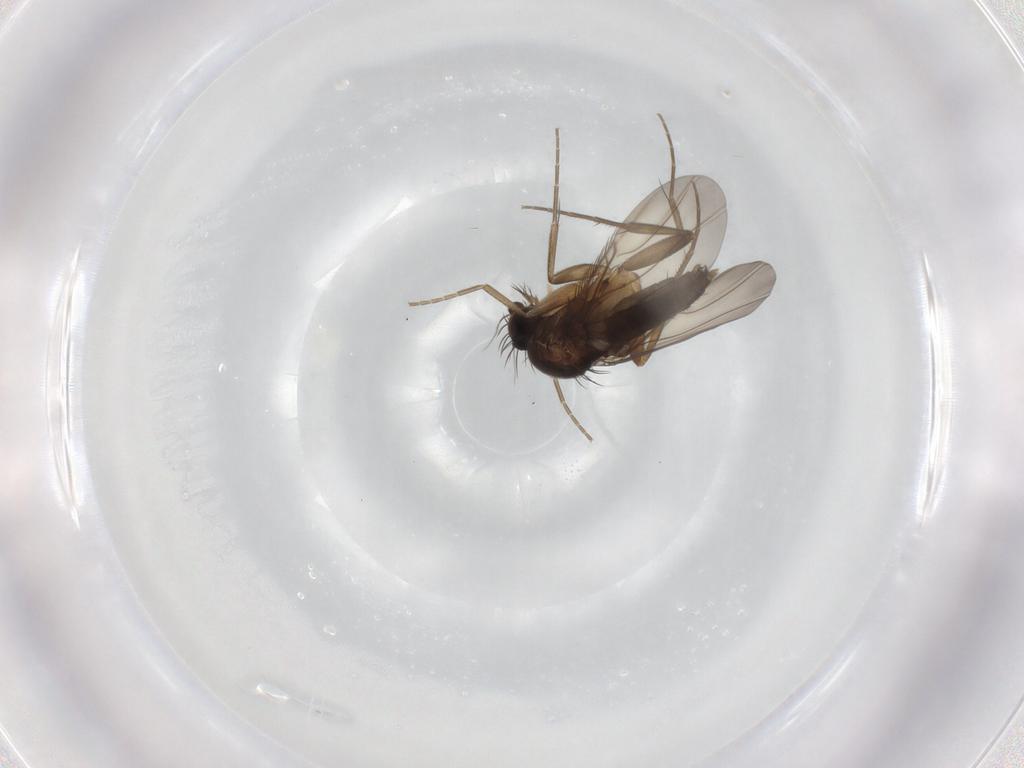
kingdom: Animalia
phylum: Arthropoda
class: Insecta
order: Diptera
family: Phoridae
